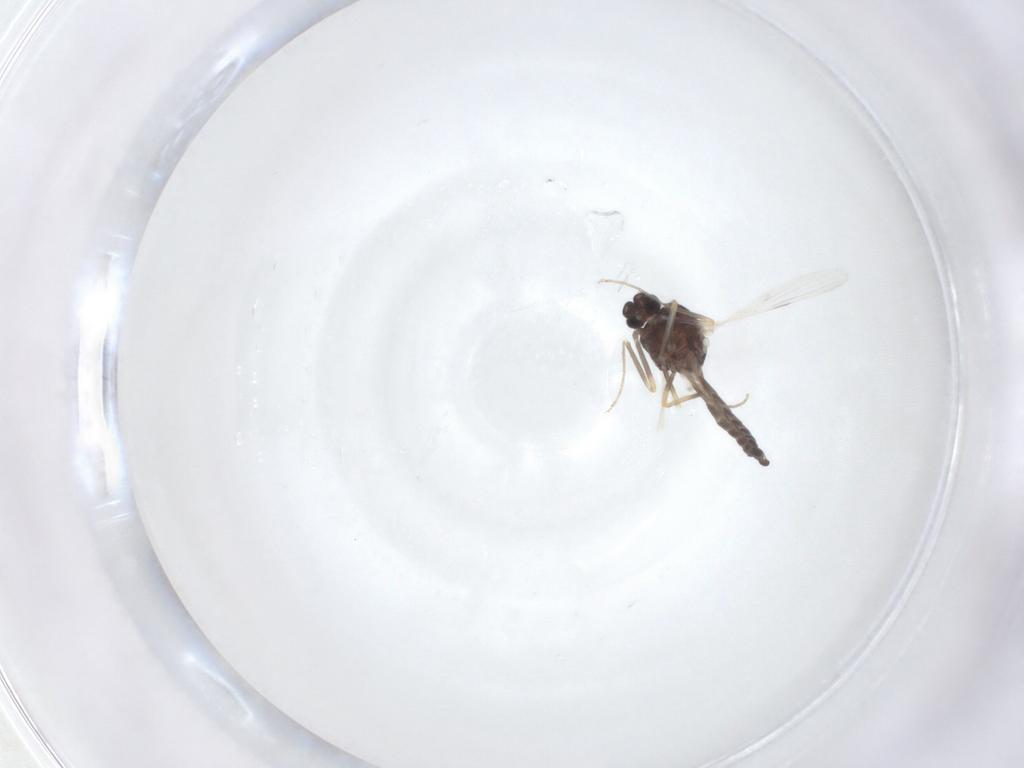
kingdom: Animalia
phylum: Arthropoda
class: Insecta
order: Diptera
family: Ceratopogonidae
